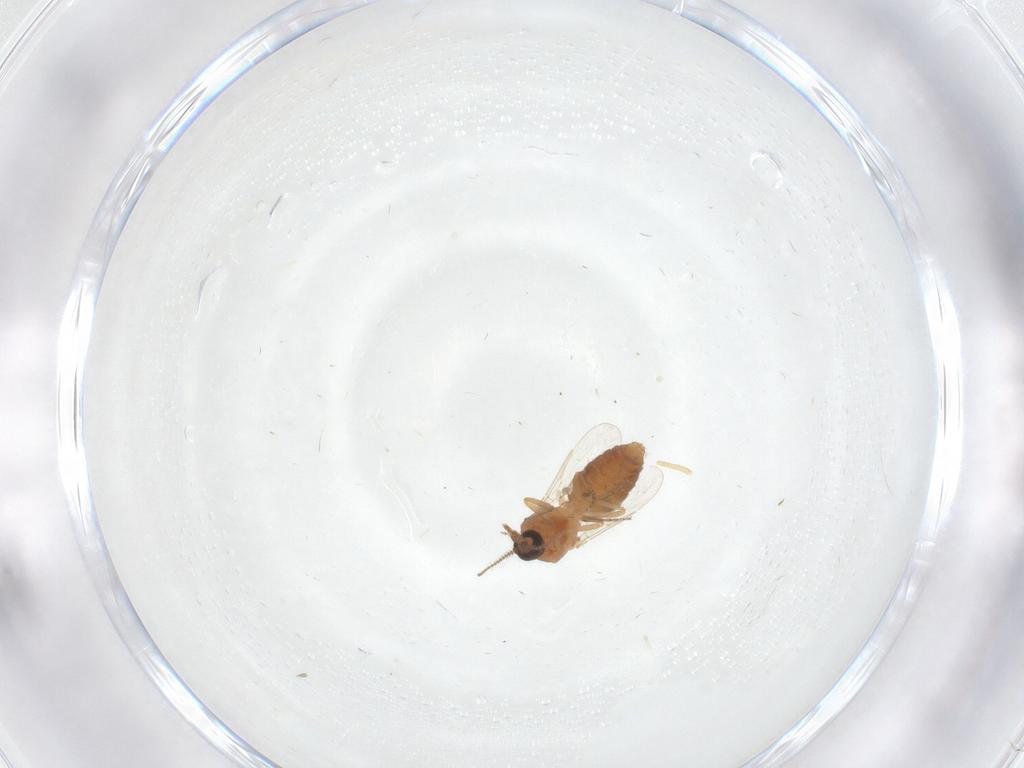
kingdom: Animalia
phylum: Arthropoda
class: Insecta
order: Diptera
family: Ceratopogonidae
